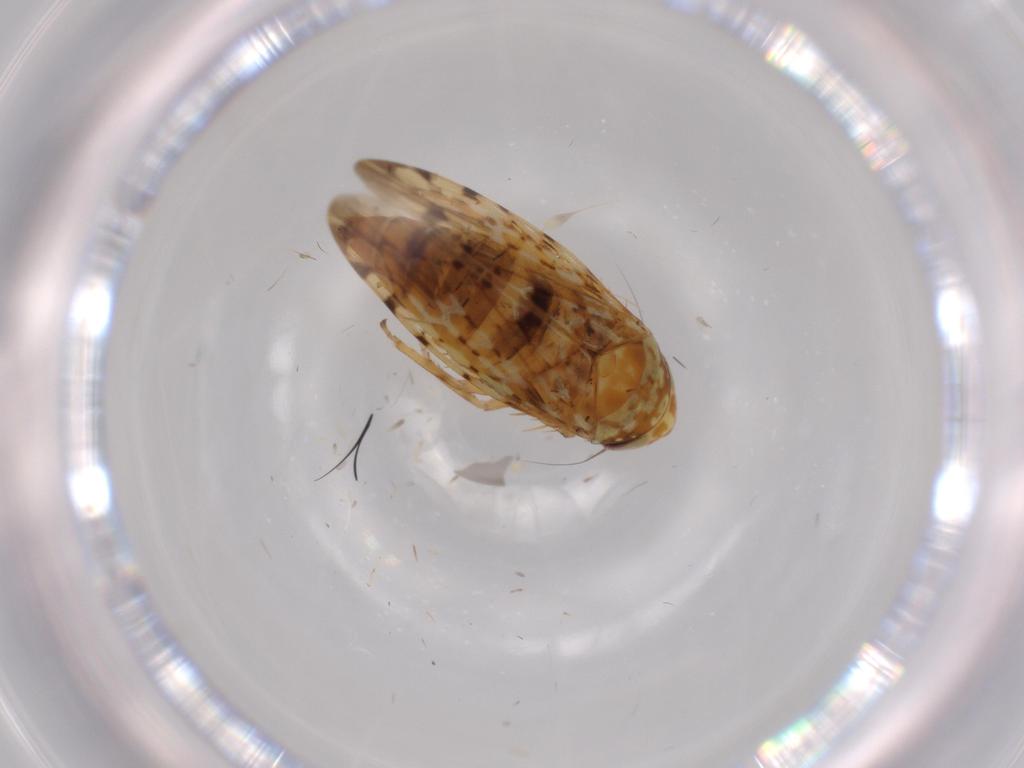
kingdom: Animalia
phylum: Arthropoda
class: Insecta
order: Hemiptera
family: Cicadellidae
